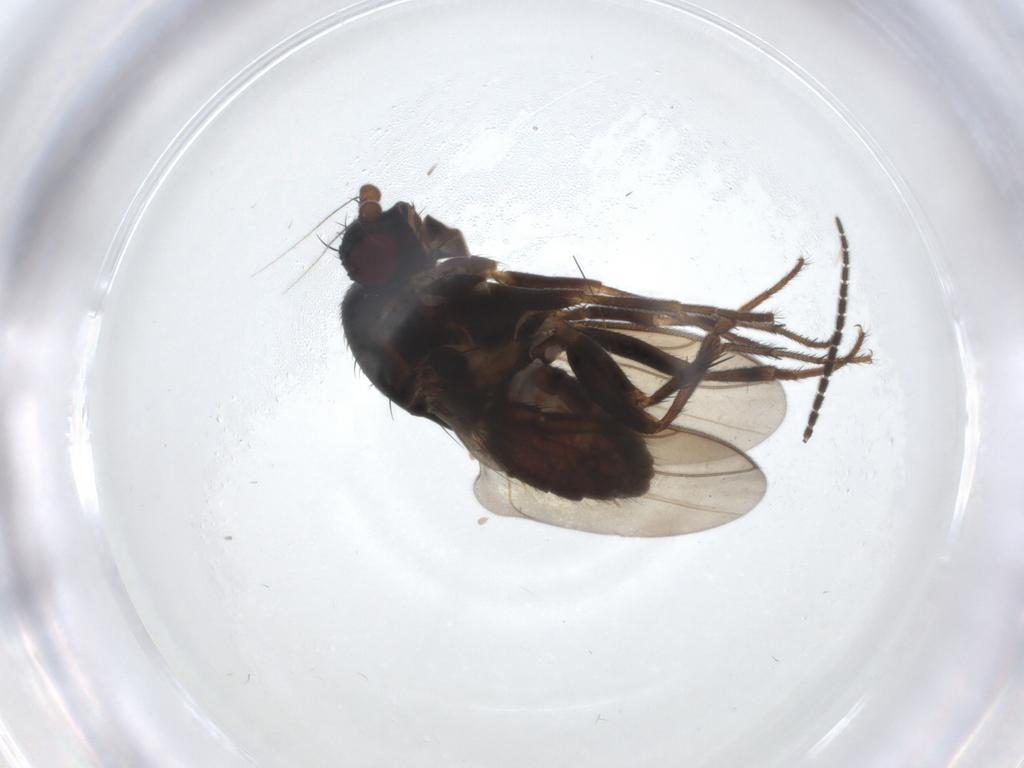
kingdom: Animalia
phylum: Arthropoda
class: Insecta
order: Diptera
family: Sphaeroceridae
